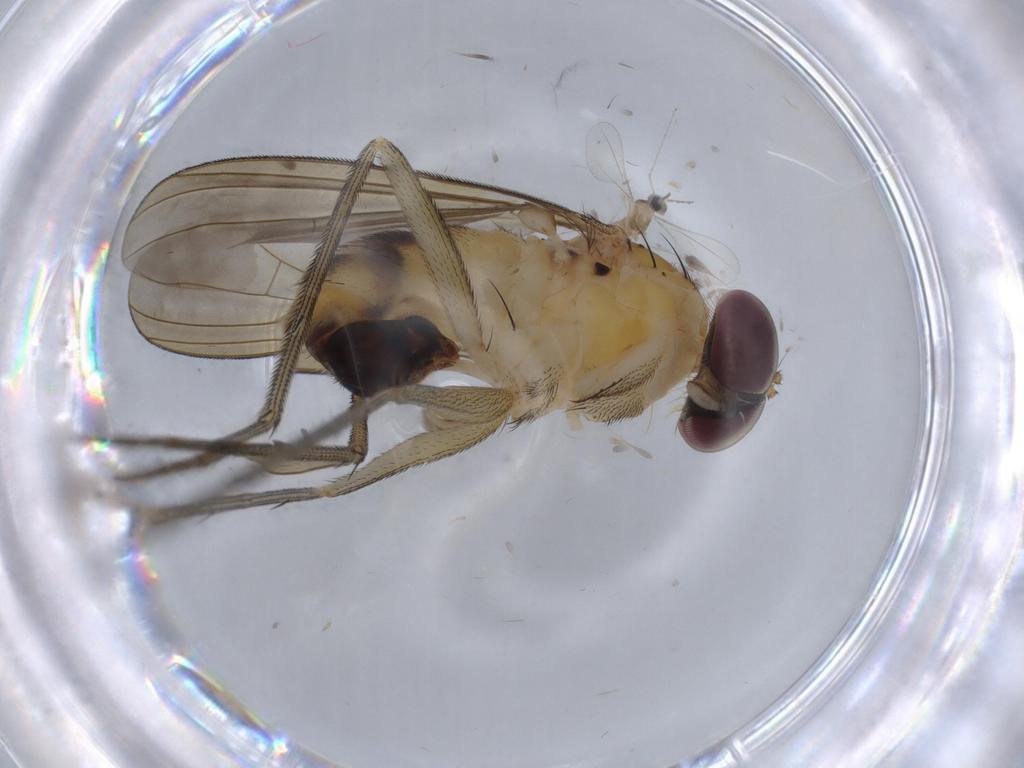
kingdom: Animalia
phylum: Arthropoda
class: Insecta
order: Diptera
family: Dolichopodidae
